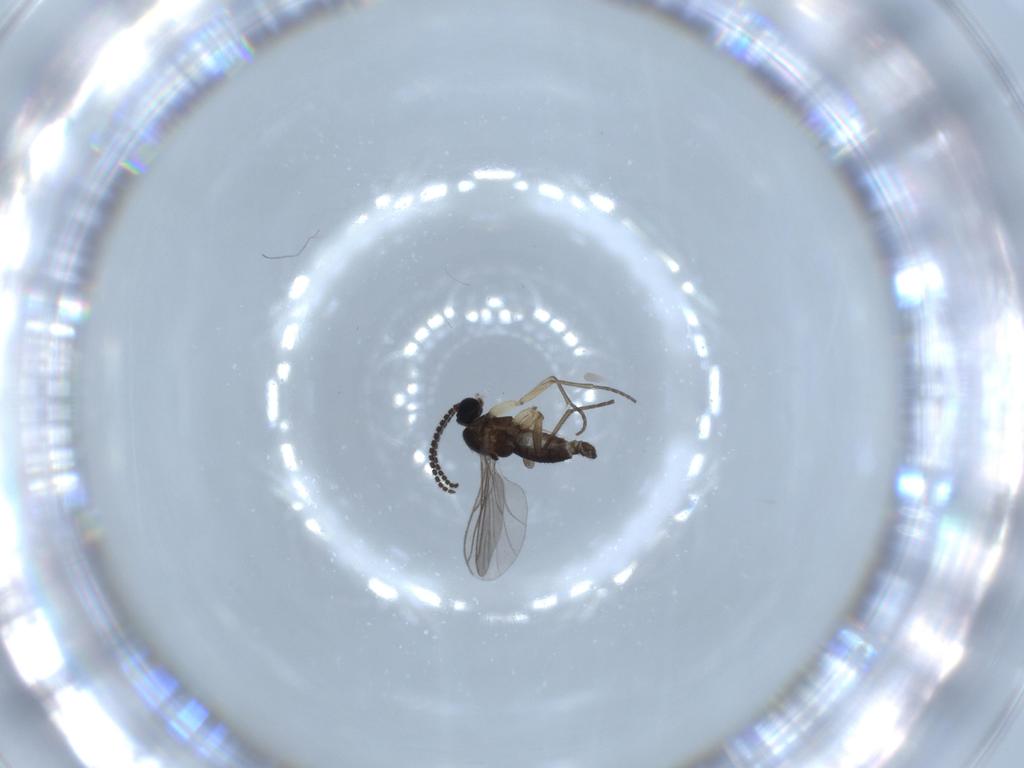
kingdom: Animalia
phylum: Arthropoda
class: Insecta
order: Diptera
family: Sciaridae
